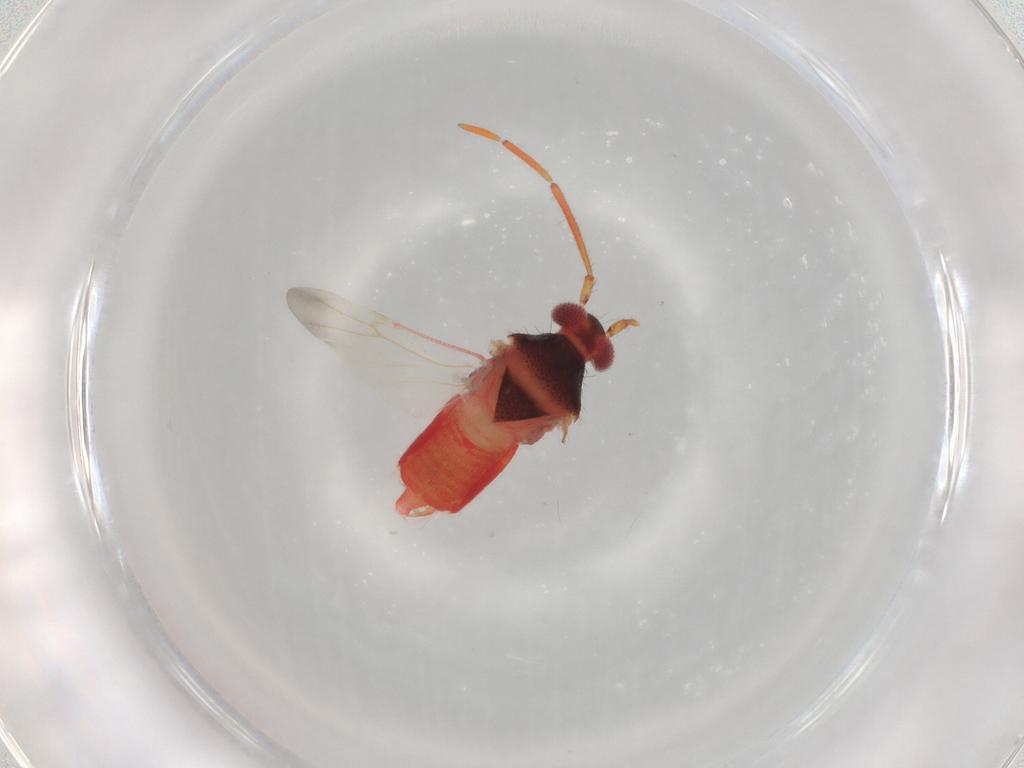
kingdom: Animalia
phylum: Arthropoda
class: Insecta
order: Hemiptera
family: Miridae
